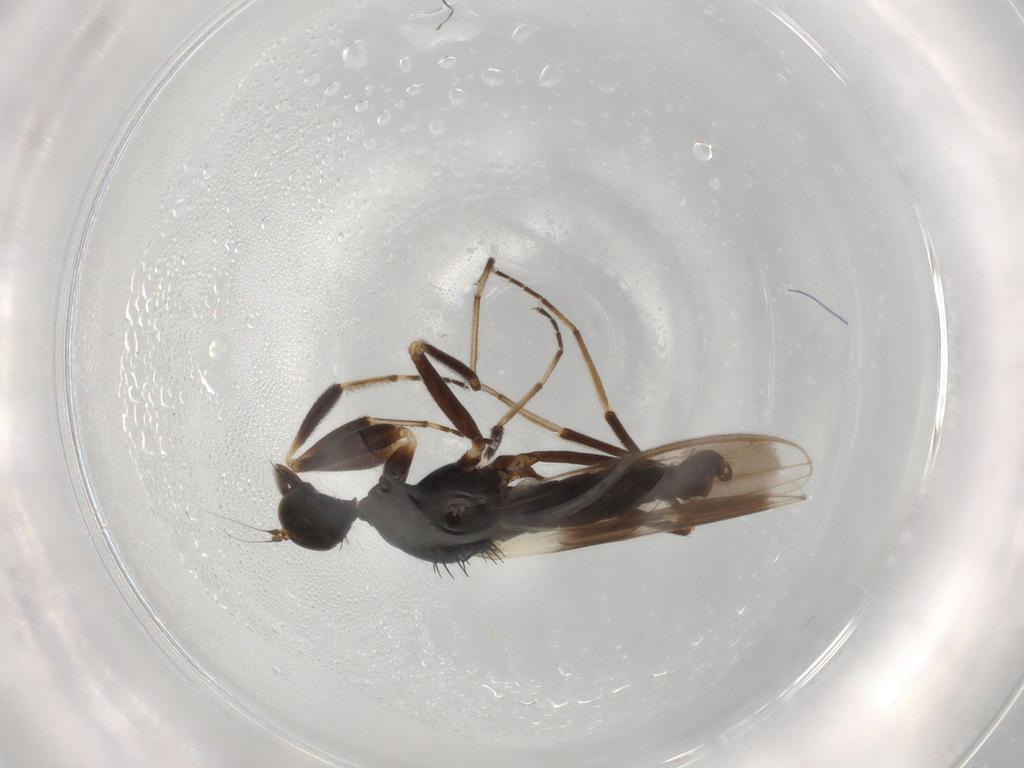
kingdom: Animalia
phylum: Arthropoda
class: Insecta
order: Diptera
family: Hybotidae
